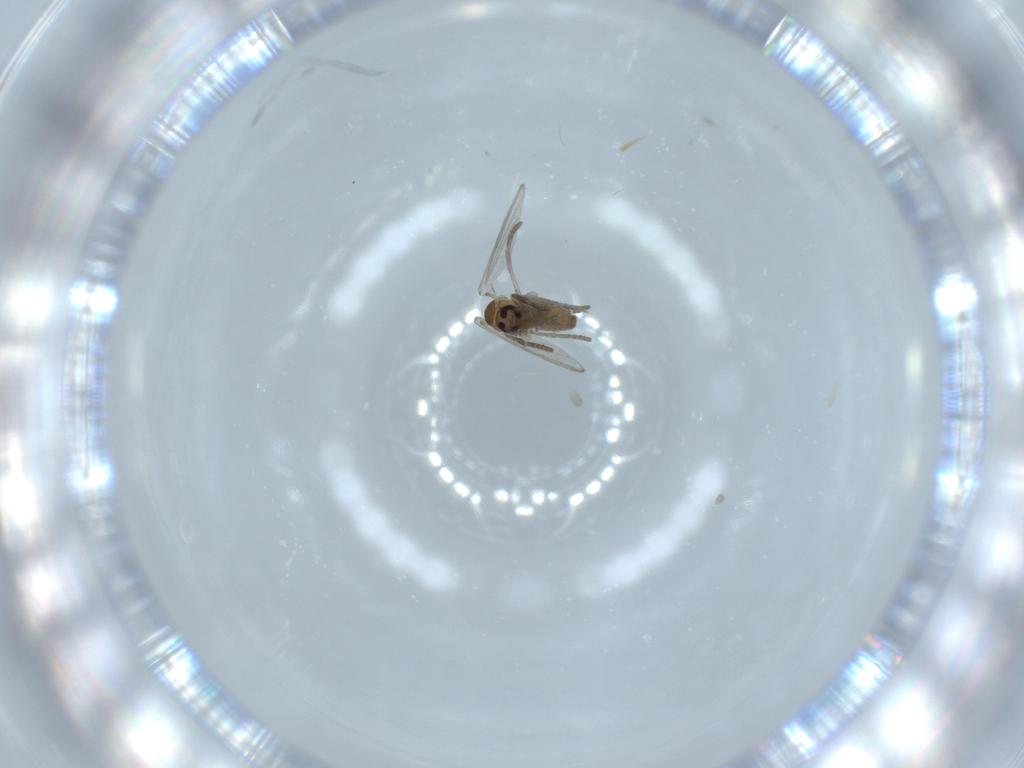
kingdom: Animalia
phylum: Arthropoda
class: Insecta
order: Diptera
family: Psychodidae
